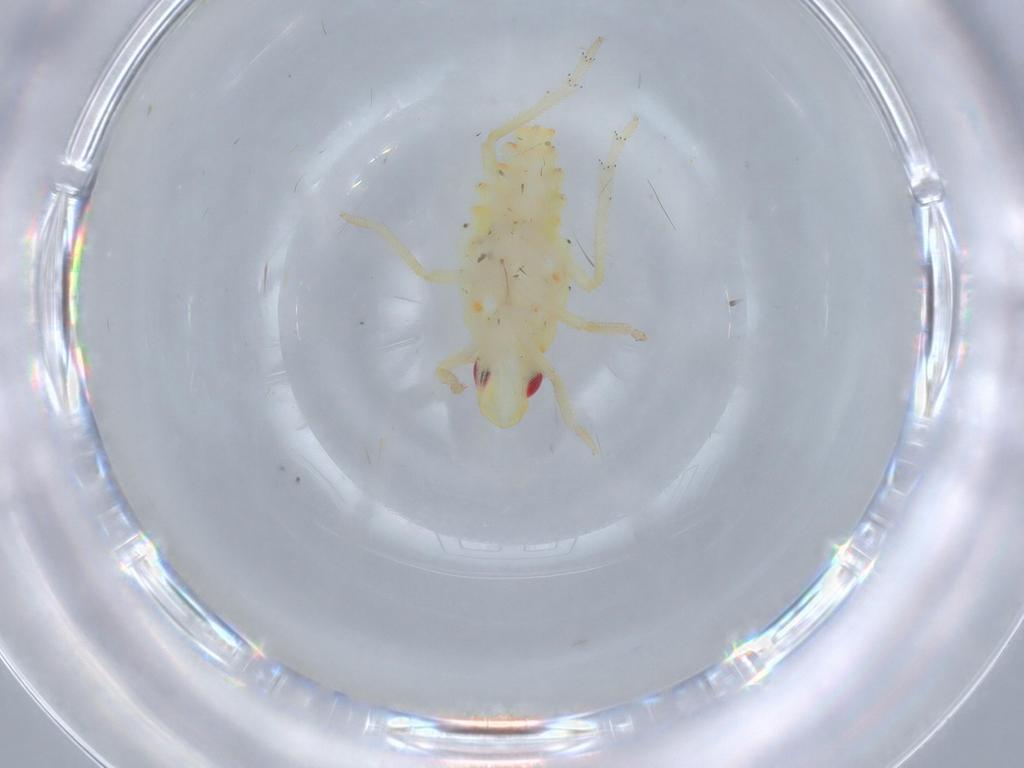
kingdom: Animalia
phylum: Arthropoda
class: Insecta
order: Hemiptera
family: Tropiduchidae
